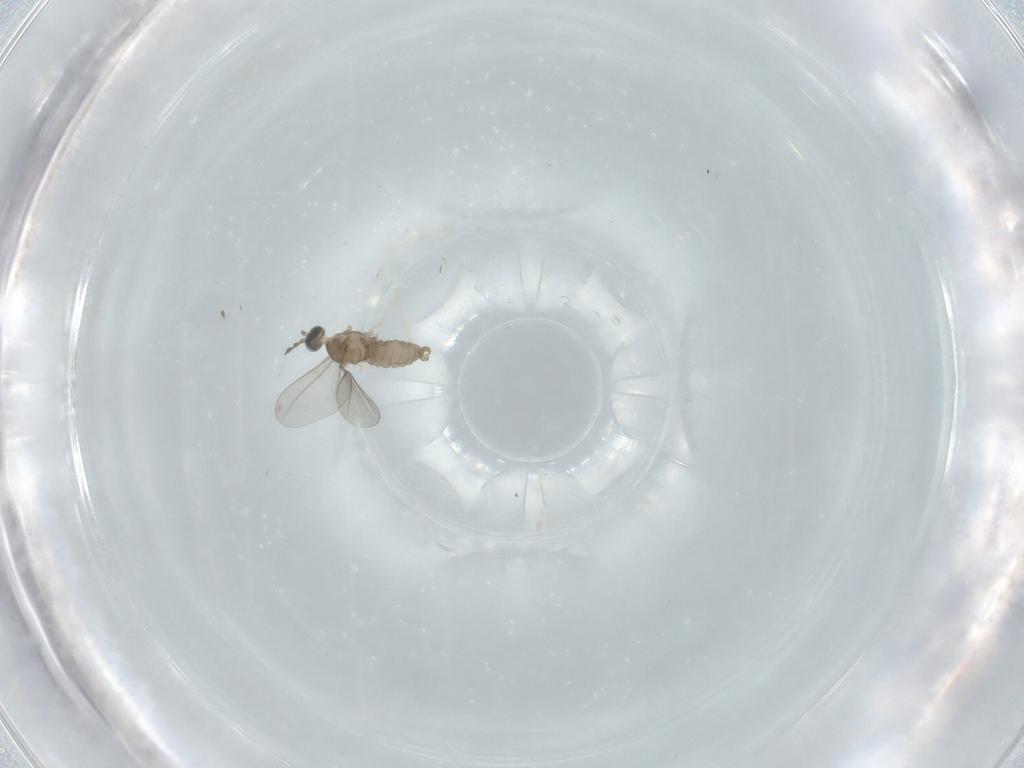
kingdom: Animalia
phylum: Arthropoda
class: Insecta
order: Diptera
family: Cecidomyiidae
